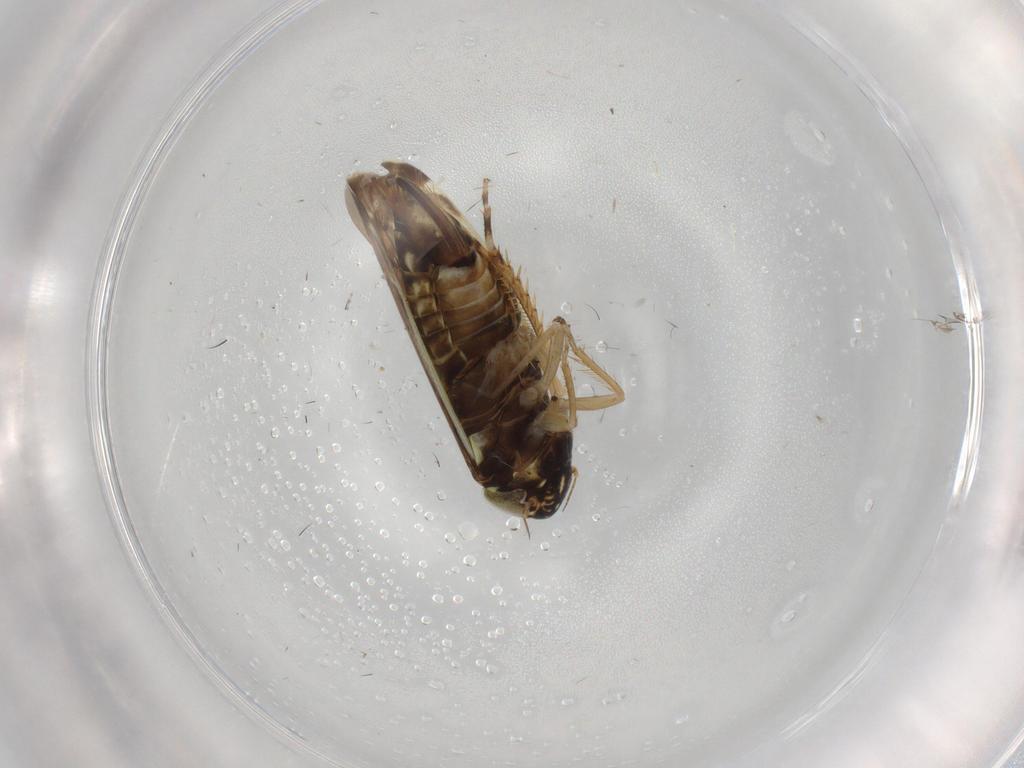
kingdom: Animalia
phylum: Arthropoda
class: Insecta
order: Hemiptera
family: Cicadellidae
